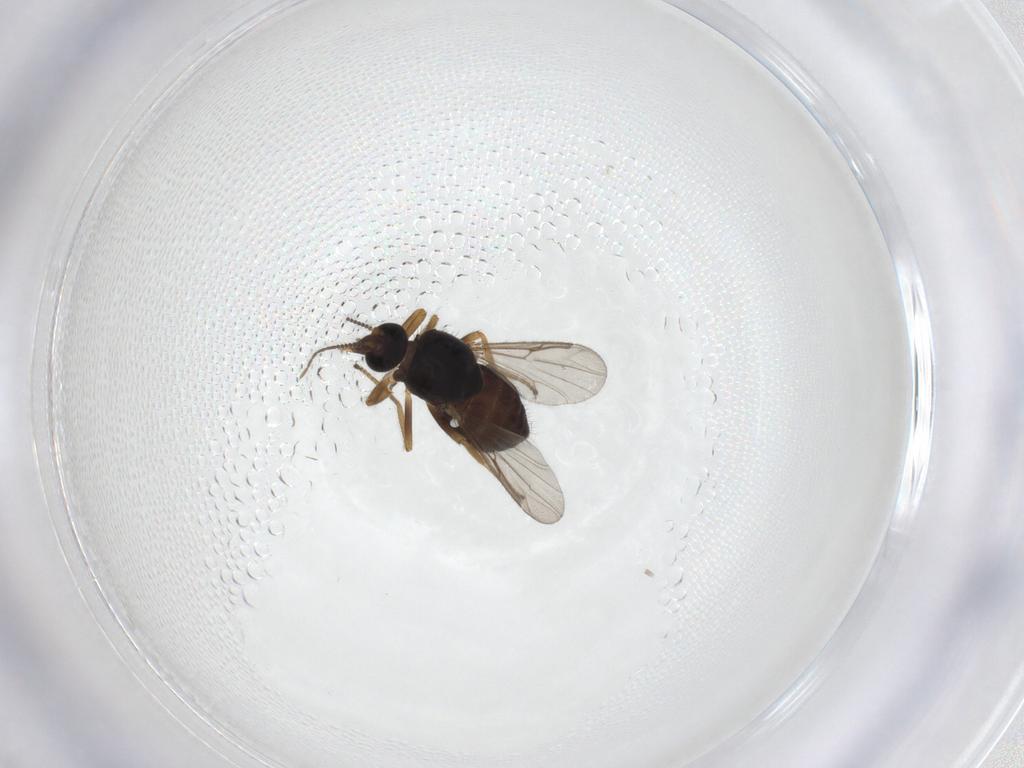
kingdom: Animalia
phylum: Arthropoda
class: Insecta
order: Diptera
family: Ceratopogonidae
